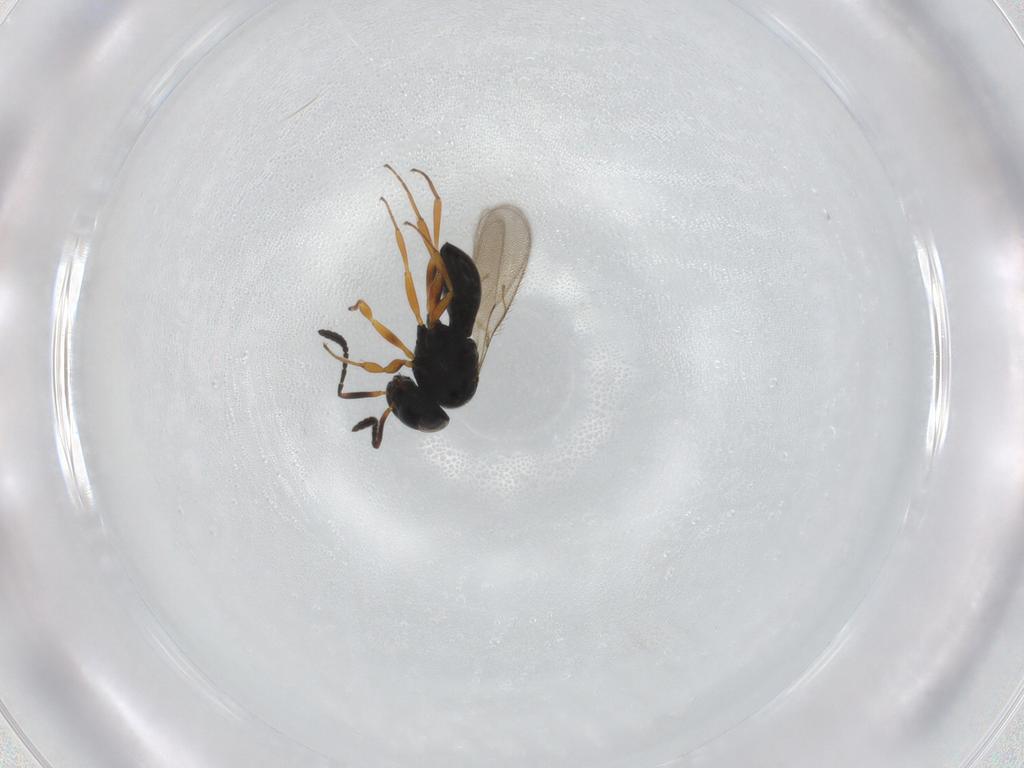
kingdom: Animalia
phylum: Arthropoda
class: Insecta
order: Hymenoptera
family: Scelionidae
